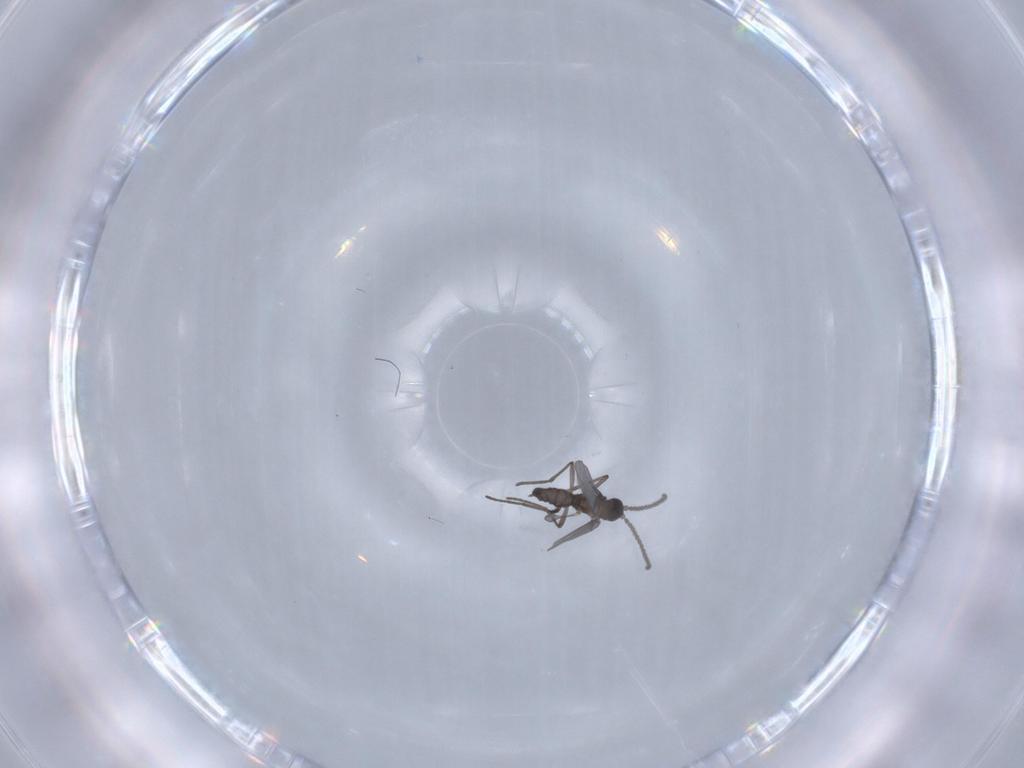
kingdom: Animalia
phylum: Arthropoda
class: Insecta
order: Diptera
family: Sciaridae
